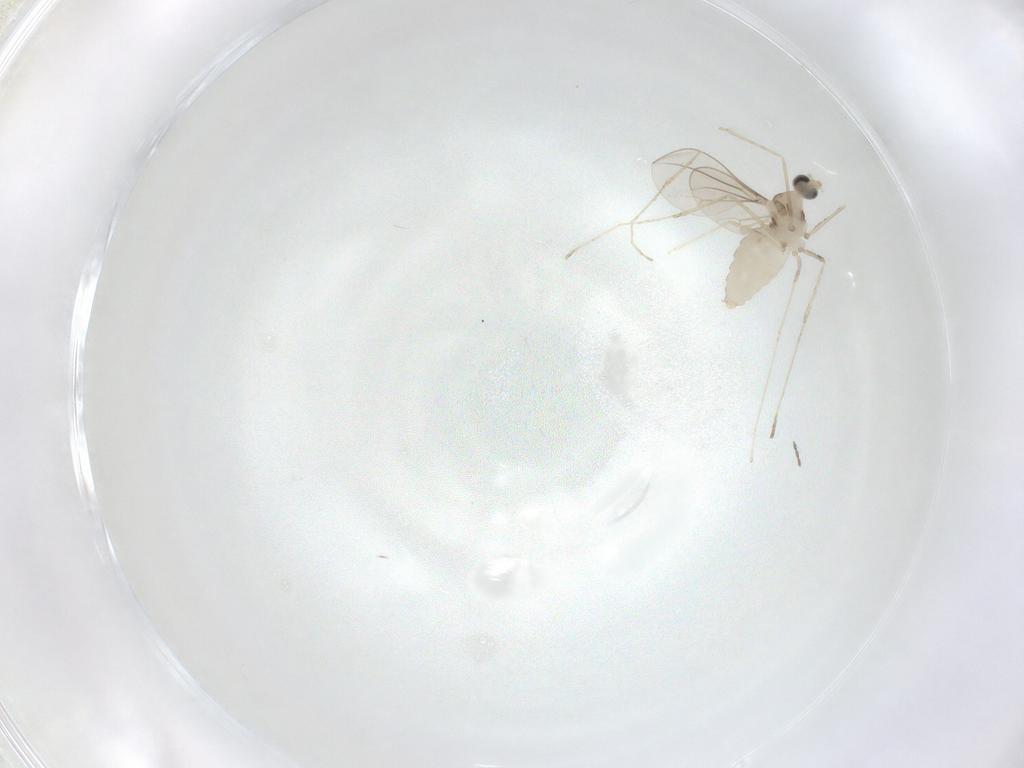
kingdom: Animalia
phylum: Arthropoda
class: Insecta
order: Diptera
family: Cecidomyiidae
